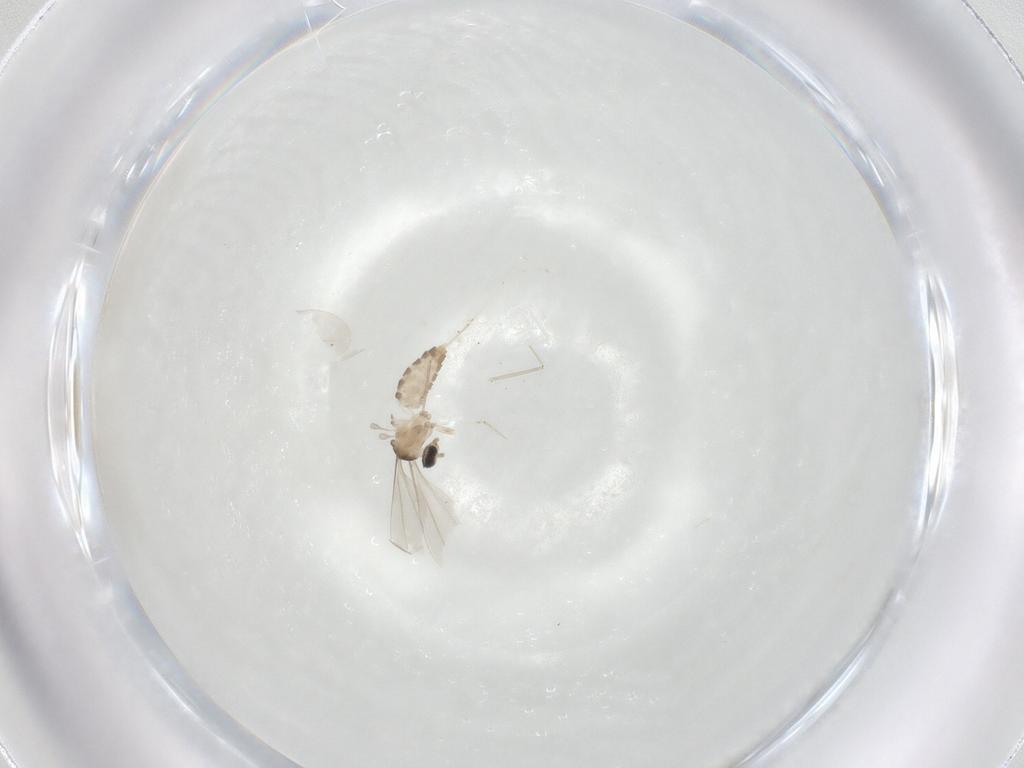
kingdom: Animalia
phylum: Arthropoda
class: Insecta
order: Diptera
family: Cecidomyiidae
